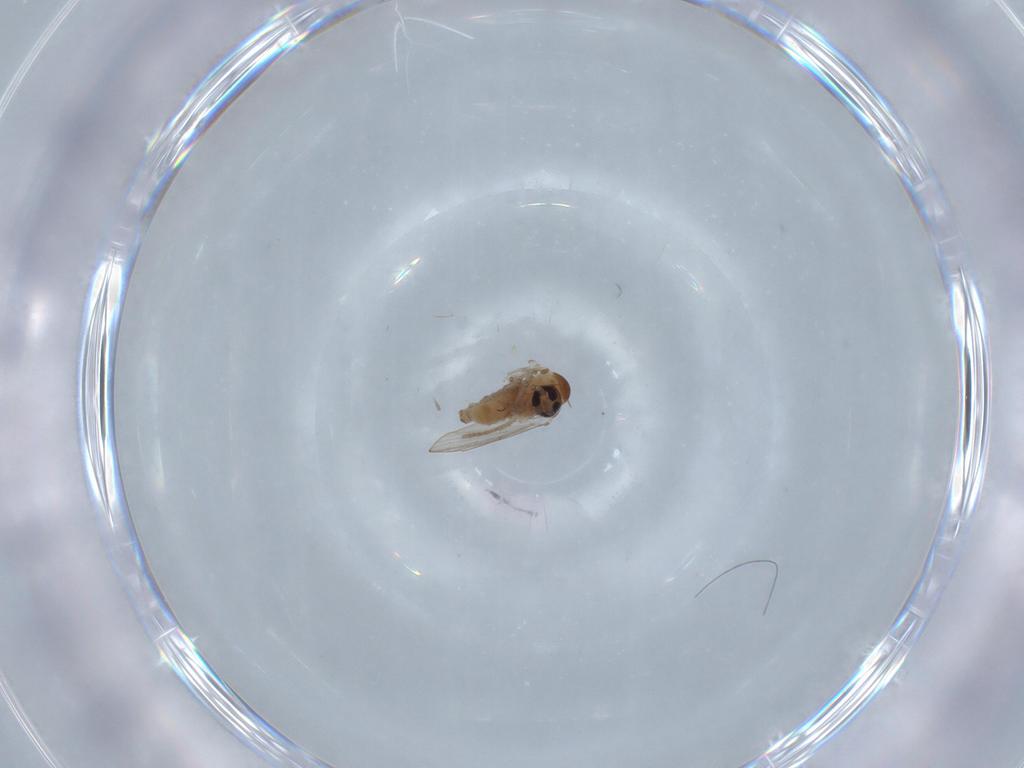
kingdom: Animalia
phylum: Arthropoda
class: Insecta
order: Diptera
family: Psychodidae
